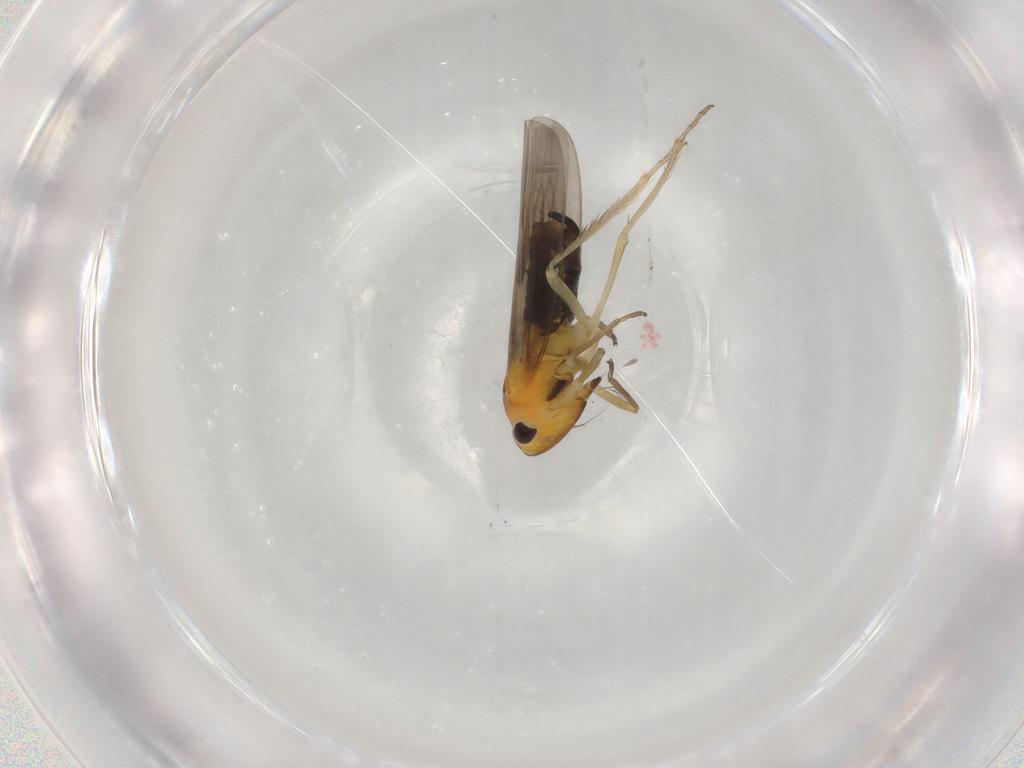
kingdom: Animalia
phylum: Arthropoda
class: Insecta
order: Hemiptera
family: Cicadellidae
